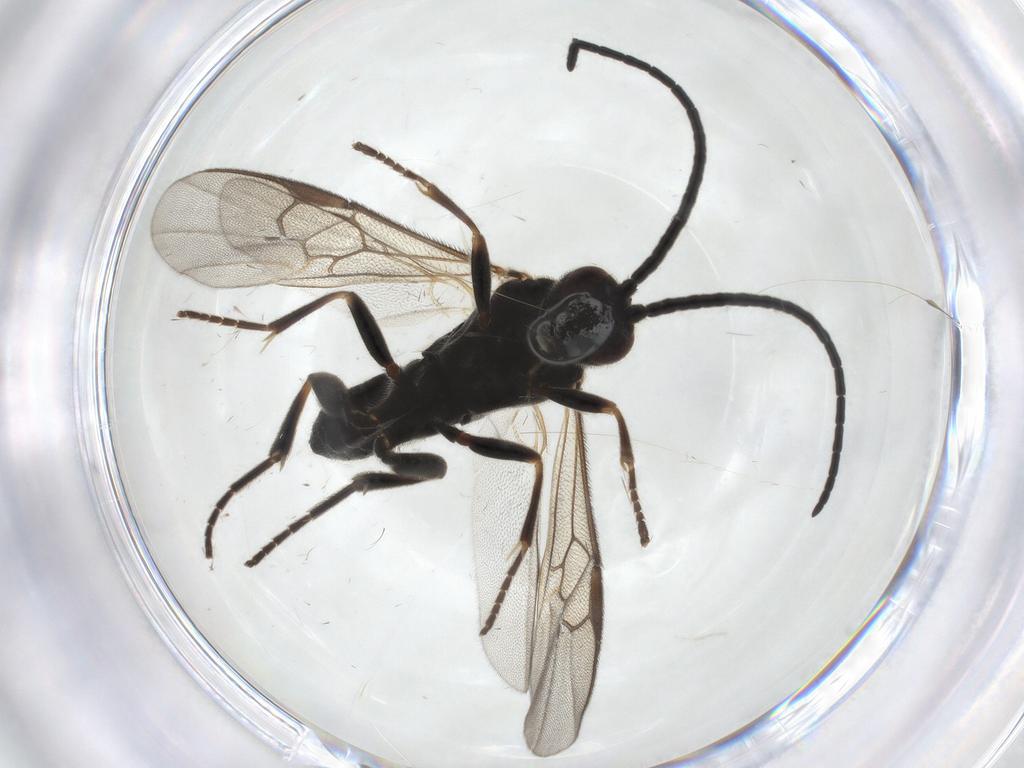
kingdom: Animalia
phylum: Arthropoda
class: Insecta
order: Hymenoptera
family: Braconidae
